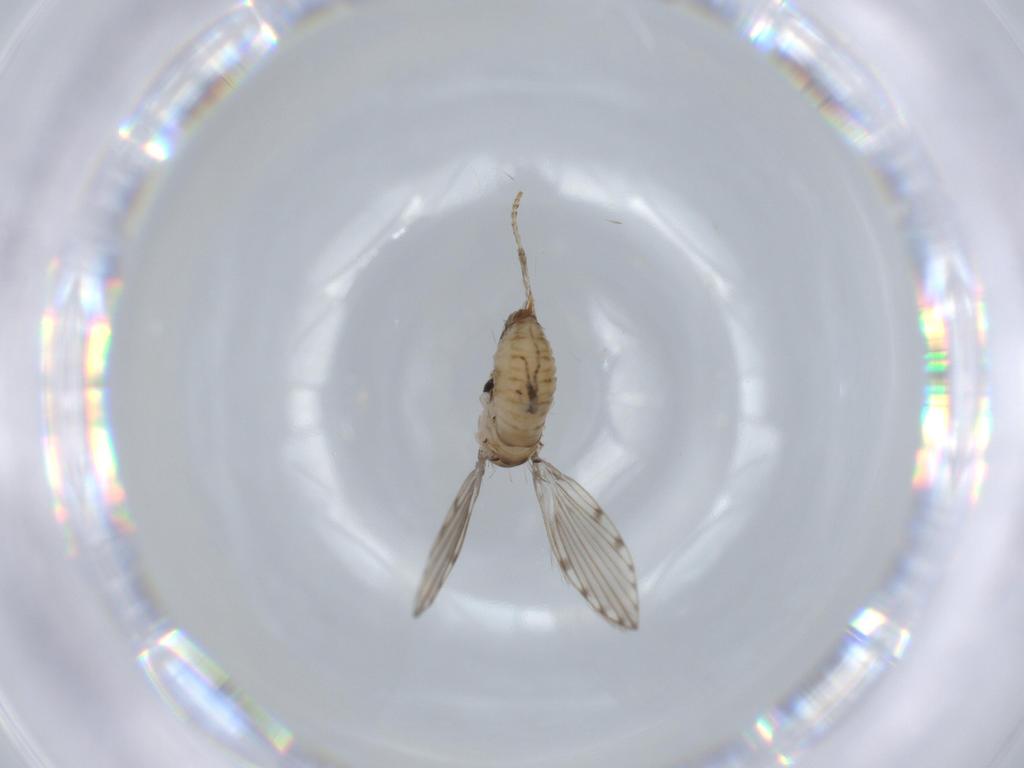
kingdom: Animalia
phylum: Arthropoda
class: Insecta
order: Diptera
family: Psychodidae
